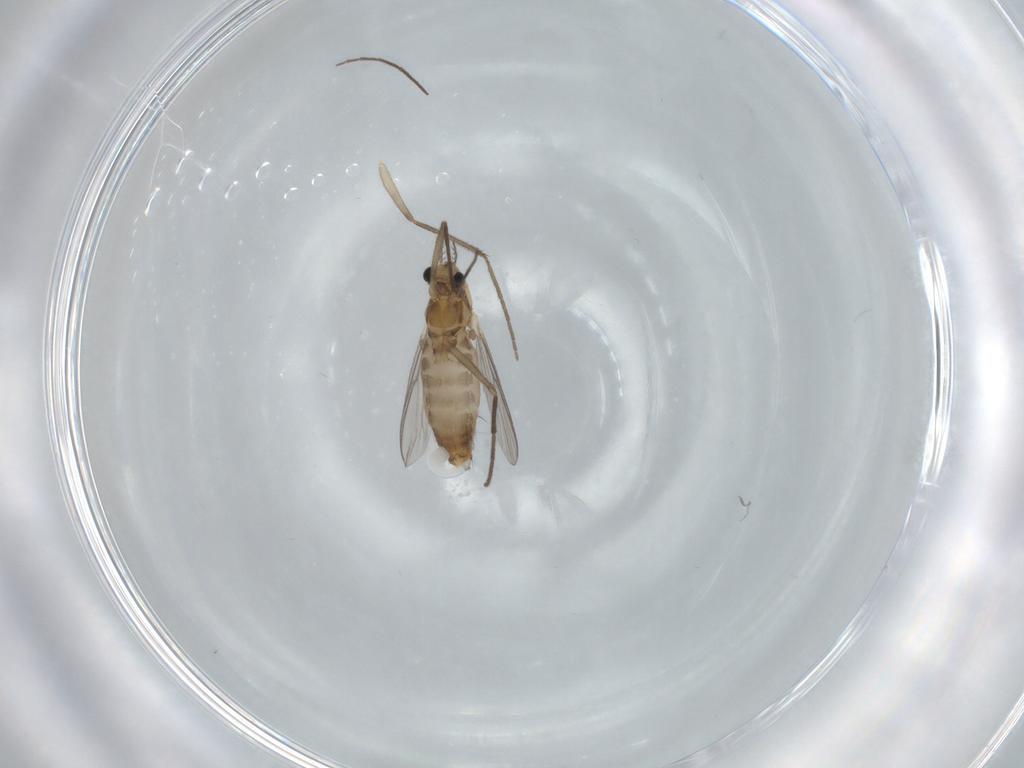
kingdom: Animalia
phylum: Arthropoda
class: Insecta
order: Diptera
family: Chironomidae
